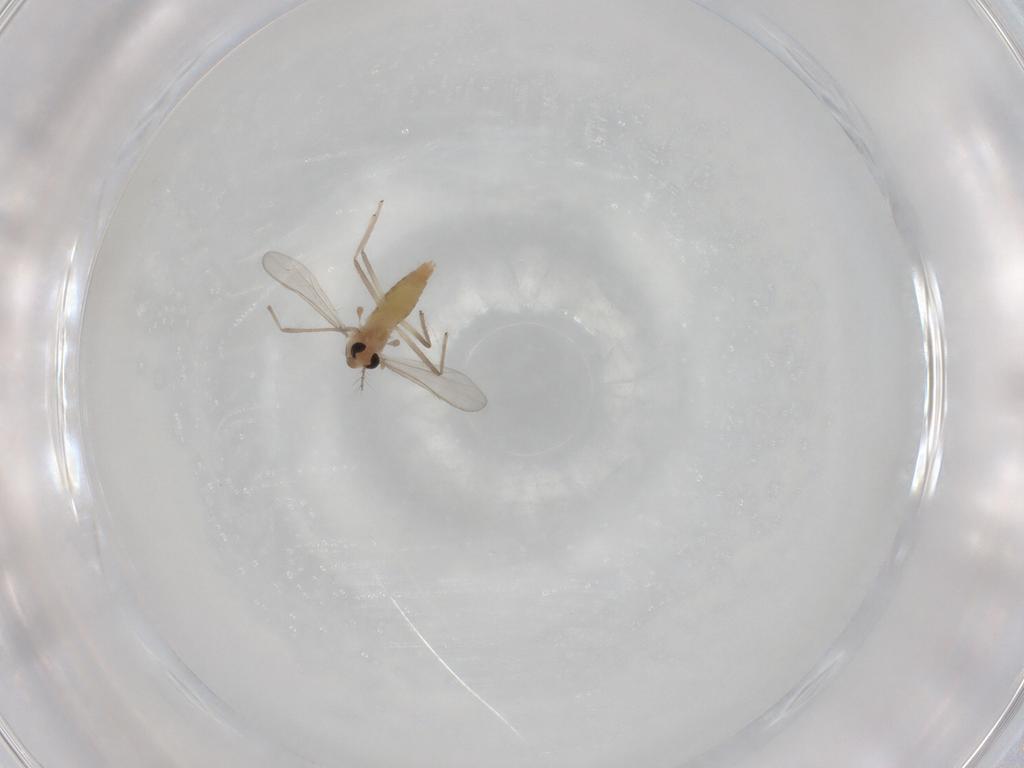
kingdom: Animalia
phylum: Arthropoda
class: Insecta
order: Diptera
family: Chironomidae
